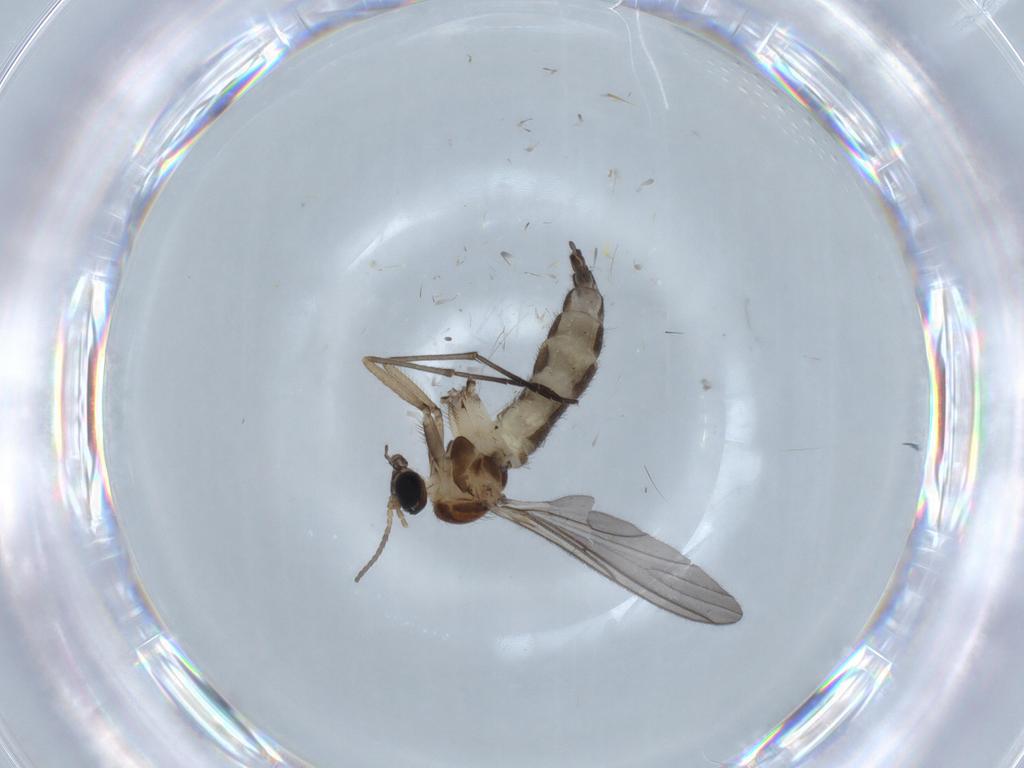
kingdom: Animalia
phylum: Arthropoda
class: Insecta
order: Diptera
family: Sciaridae
